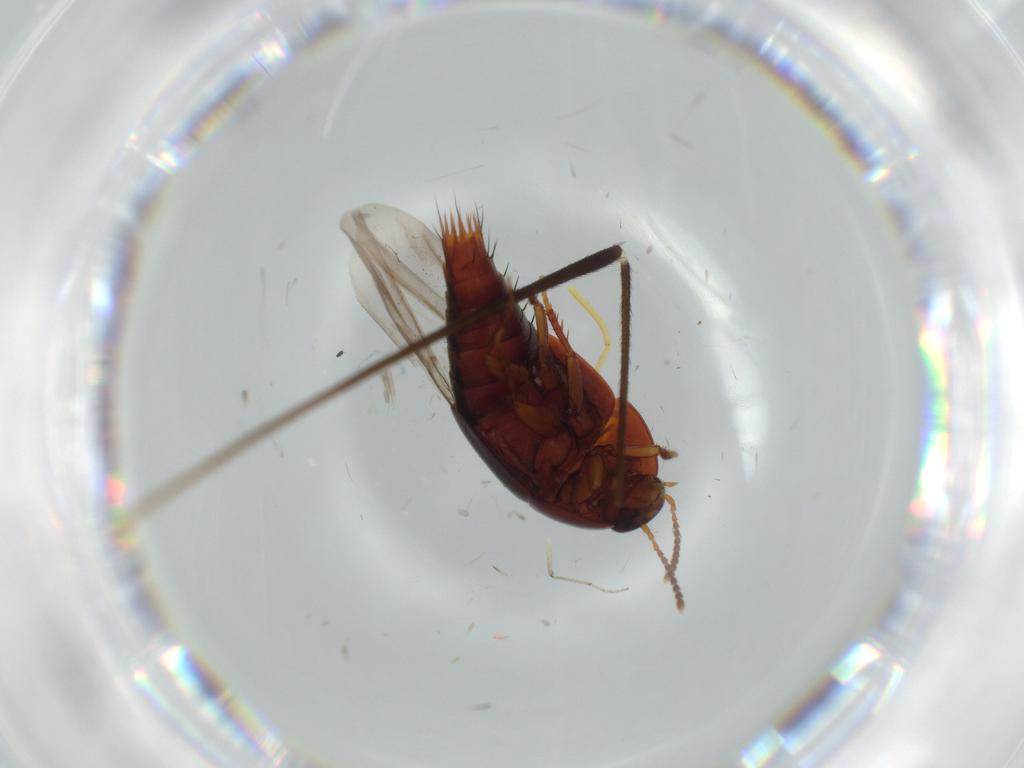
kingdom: Animalia
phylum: Arthropoda
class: Insecta
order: Coleoptera
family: Staphylinidae
